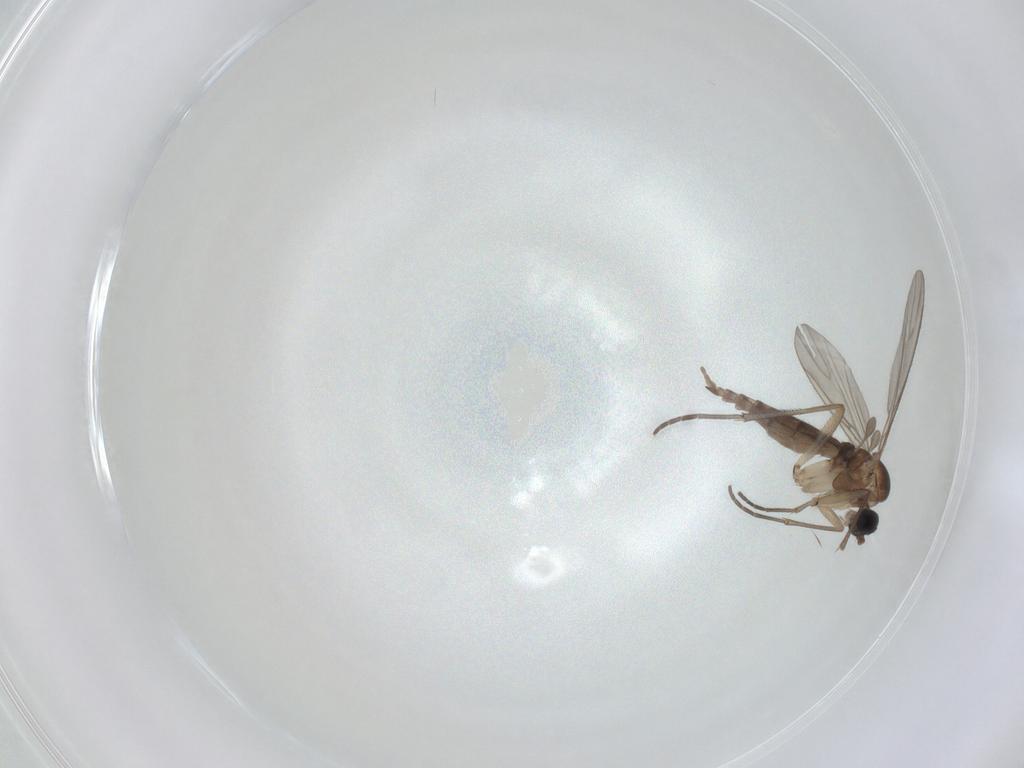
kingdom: Animalia
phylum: Arthropoda
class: Insecta
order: Diptera
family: Sciaridae
